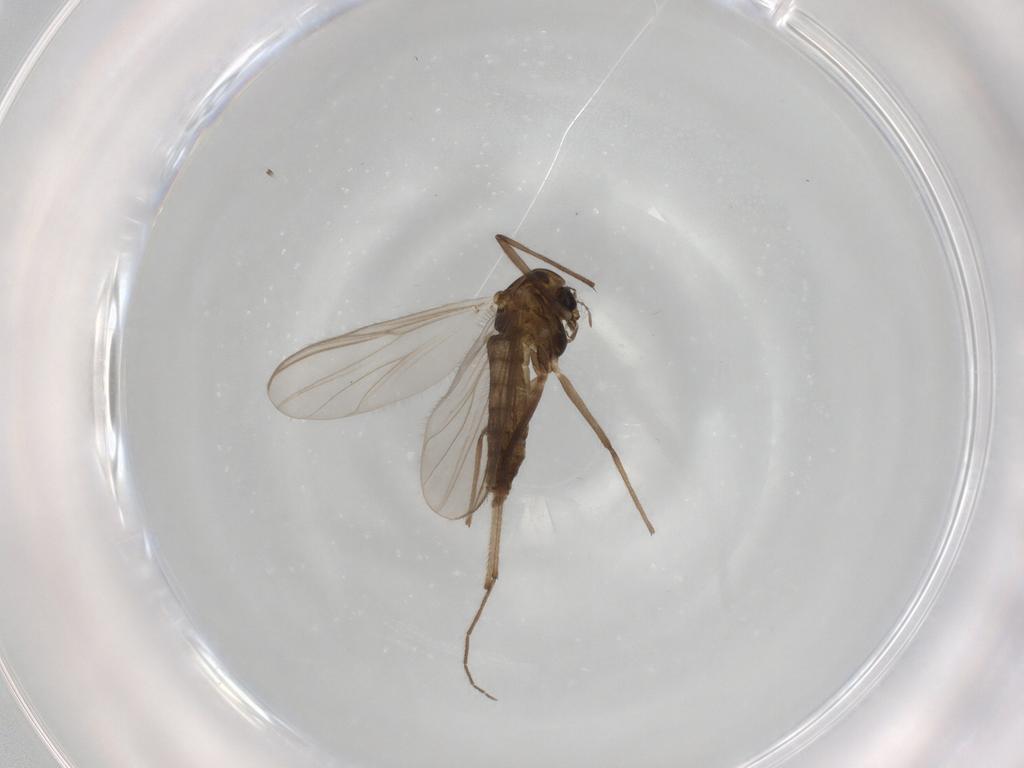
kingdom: Animalia
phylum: Arthropoda
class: Insecta
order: Diptera
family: Chironomidae
